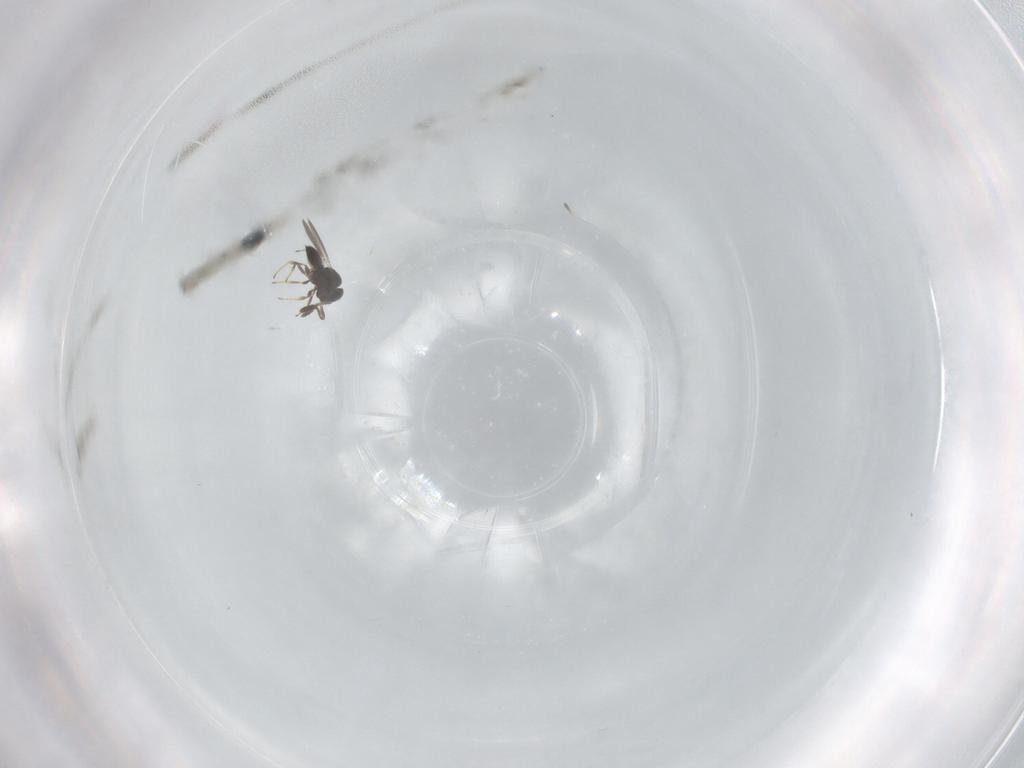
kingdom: Animalia
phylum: Arthropoda
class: Insecta
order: Hymenoptera
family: Scelionidae
